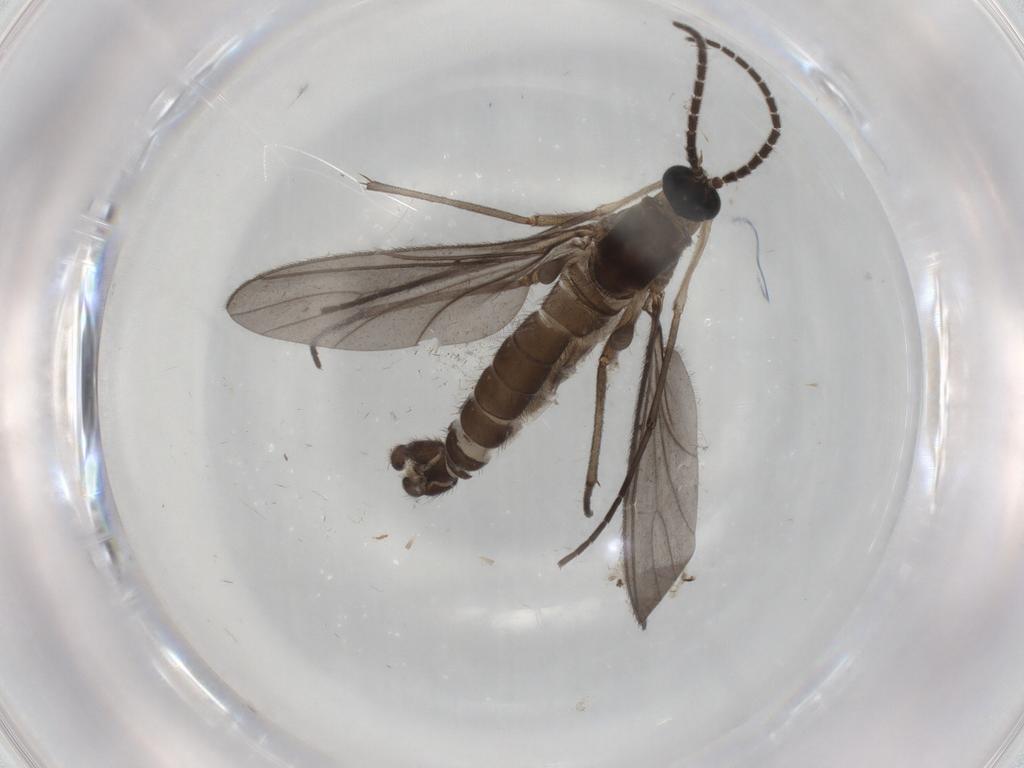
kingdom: Animalia
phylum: Arthropoda
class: Insecta
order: Diptera
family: Sciaridae
